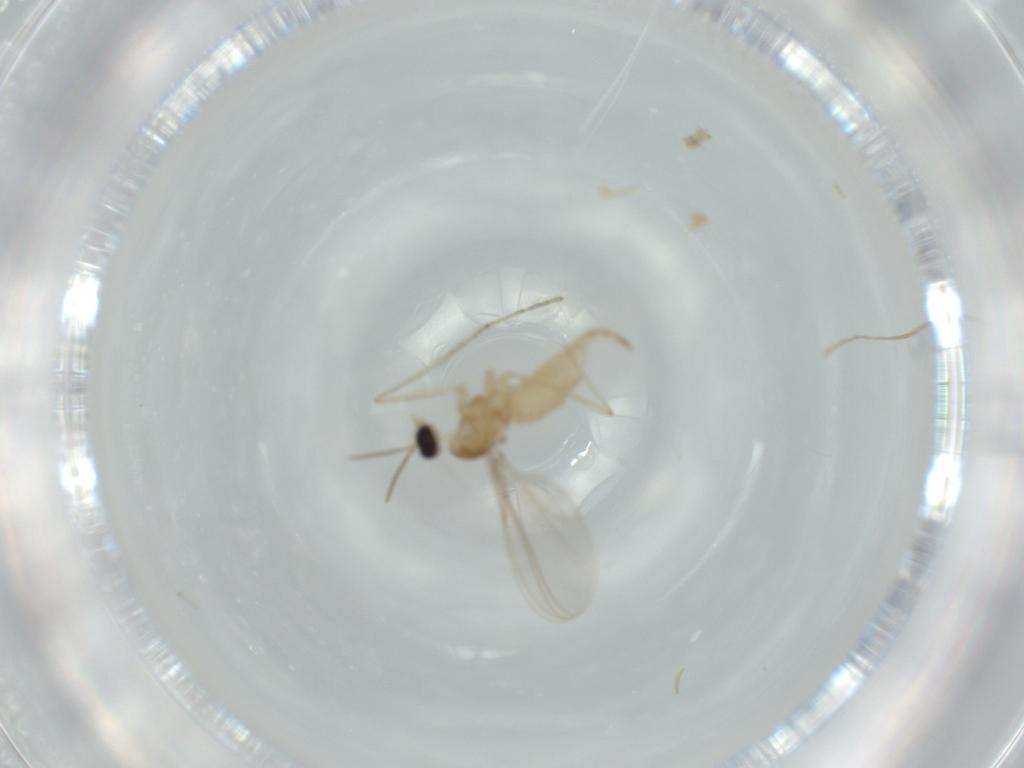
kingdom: Animalia
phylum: Arthropoda
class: Insecta
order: Diptera
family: Cecidomyiidae
